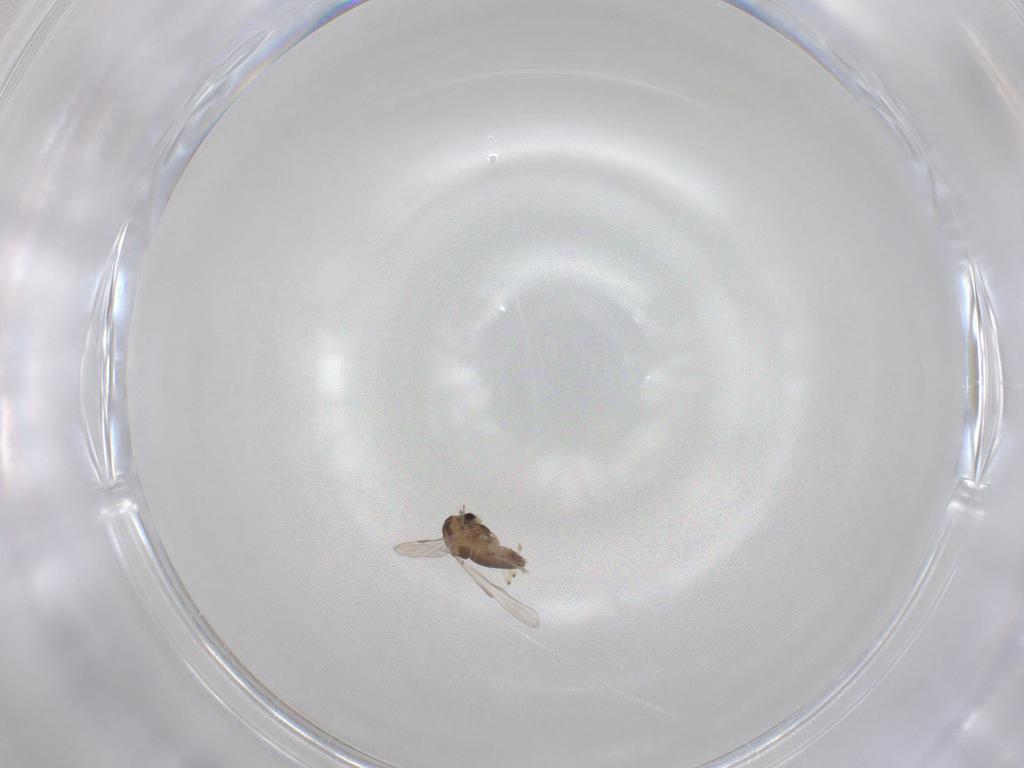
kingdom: Animalia
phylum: Arthropoda
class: Insecta
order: Diptera
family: Chironomidae
